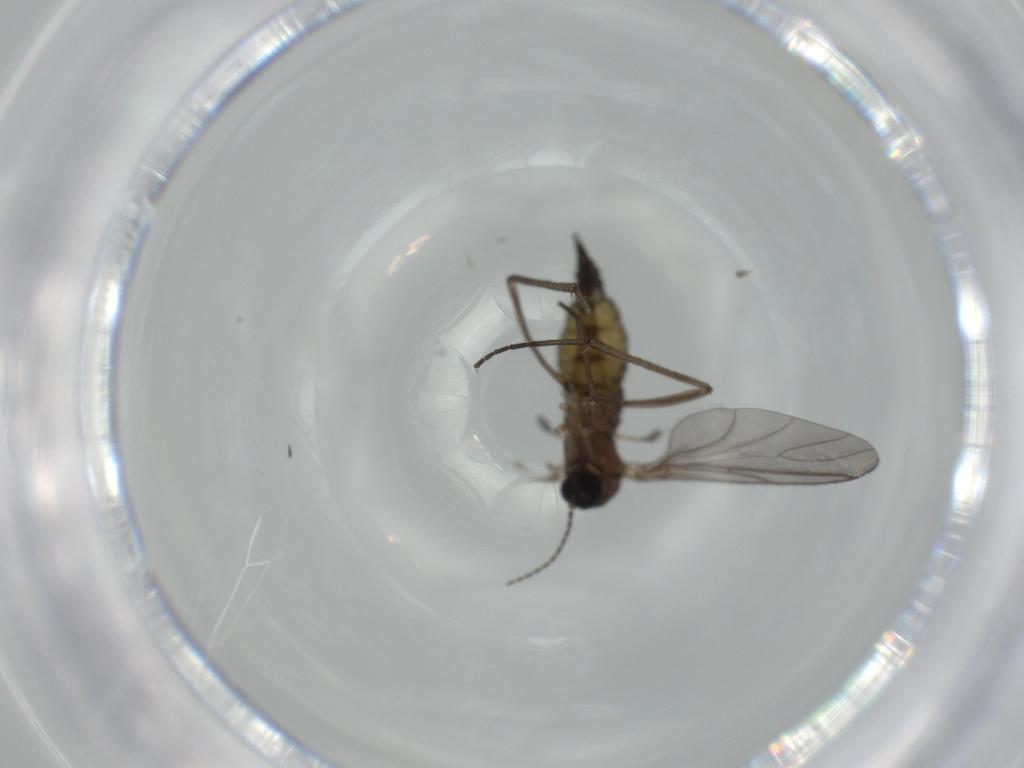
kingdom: Animalia
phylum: Arthropoda
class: Insecta
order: Diptera
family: Sciaridae
